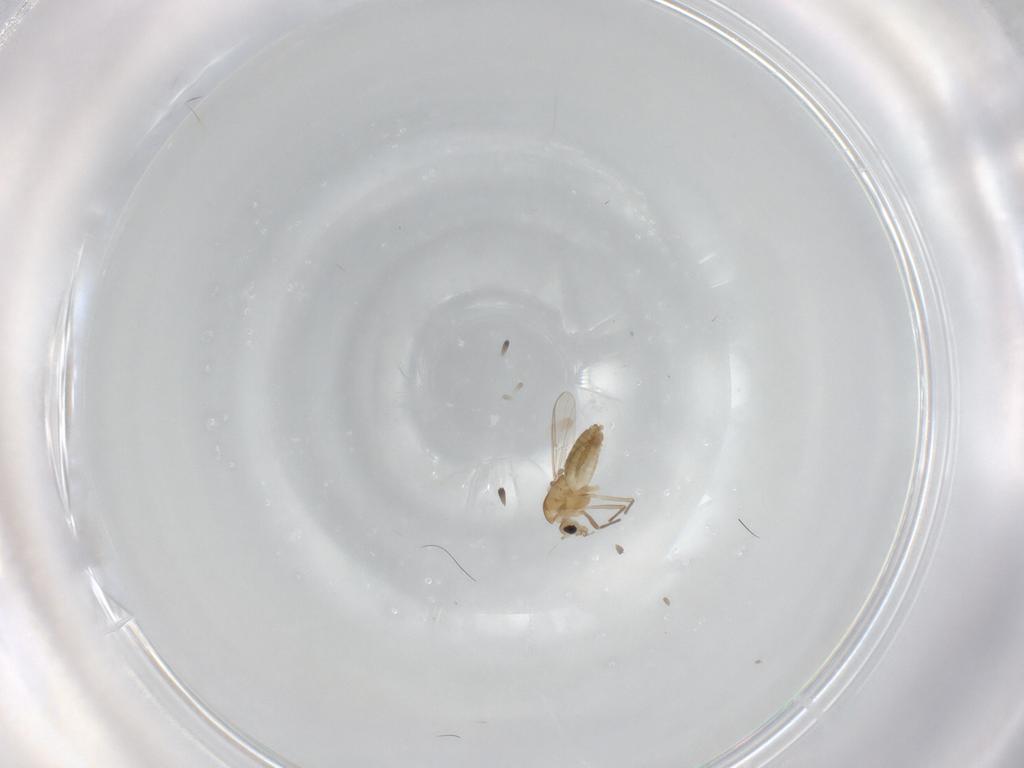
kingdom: Animalia
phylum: Arthropoda
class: Insecta
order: Diptera
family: Chironomidae
